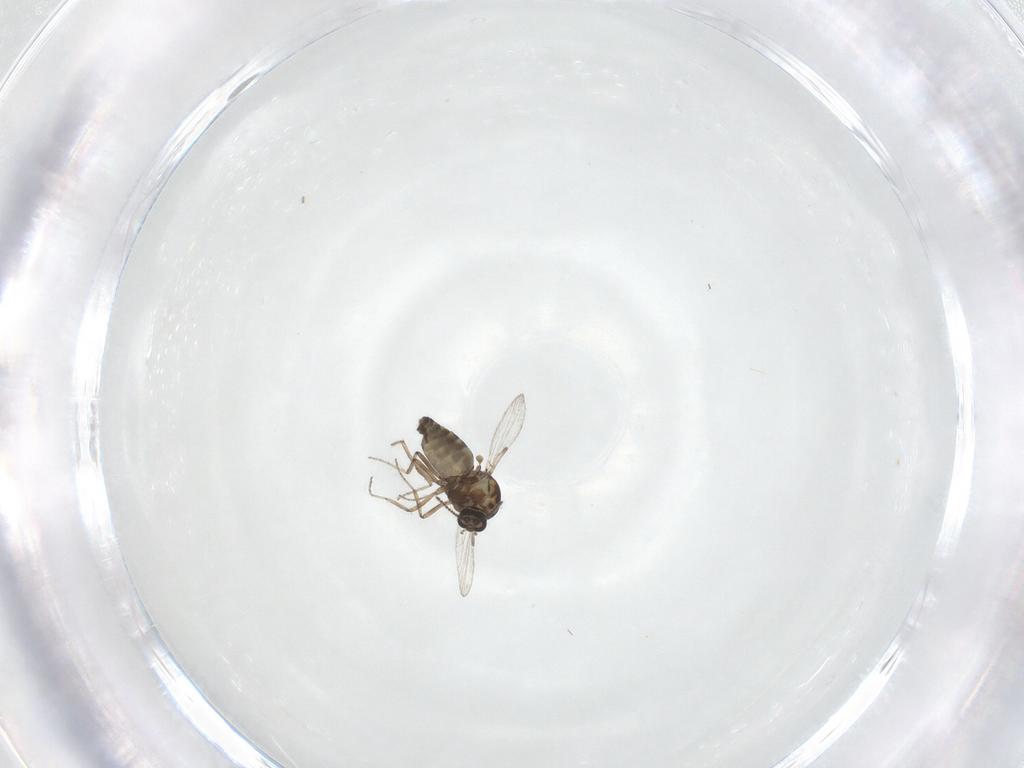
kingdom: Animalia
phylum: Arthropoda
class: Insecta
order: Diptera
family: Ceratopogonidae
